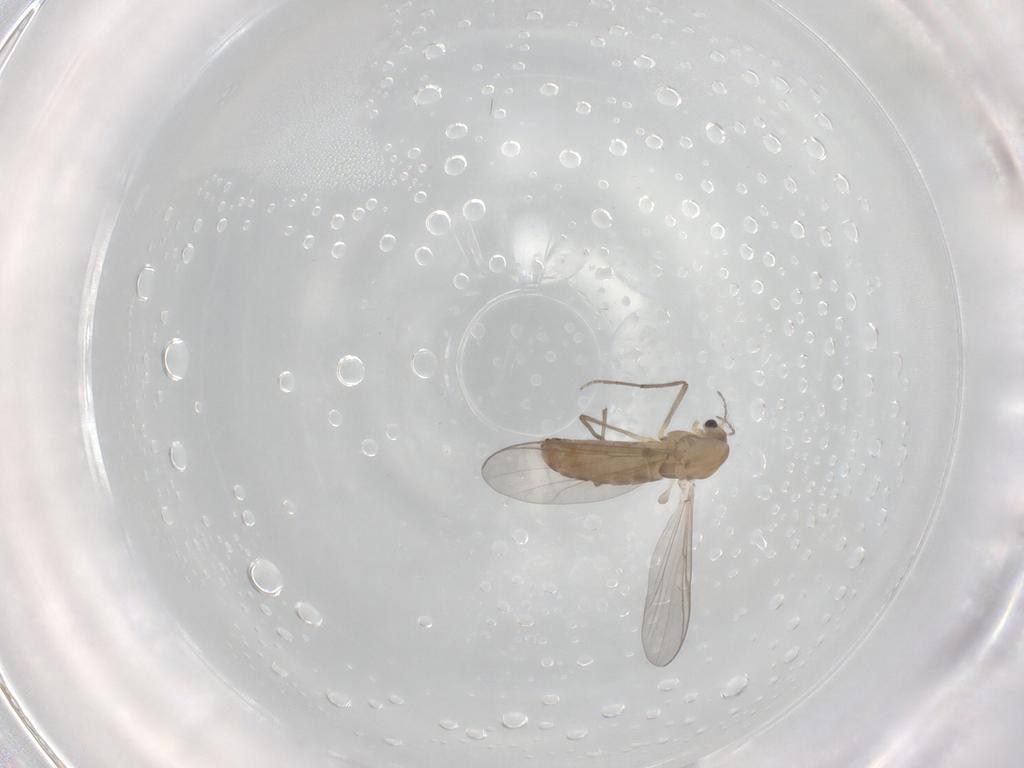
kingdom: Animalia
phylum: Arthropoda
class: Insecta
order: Diptera
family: Chironomidae
